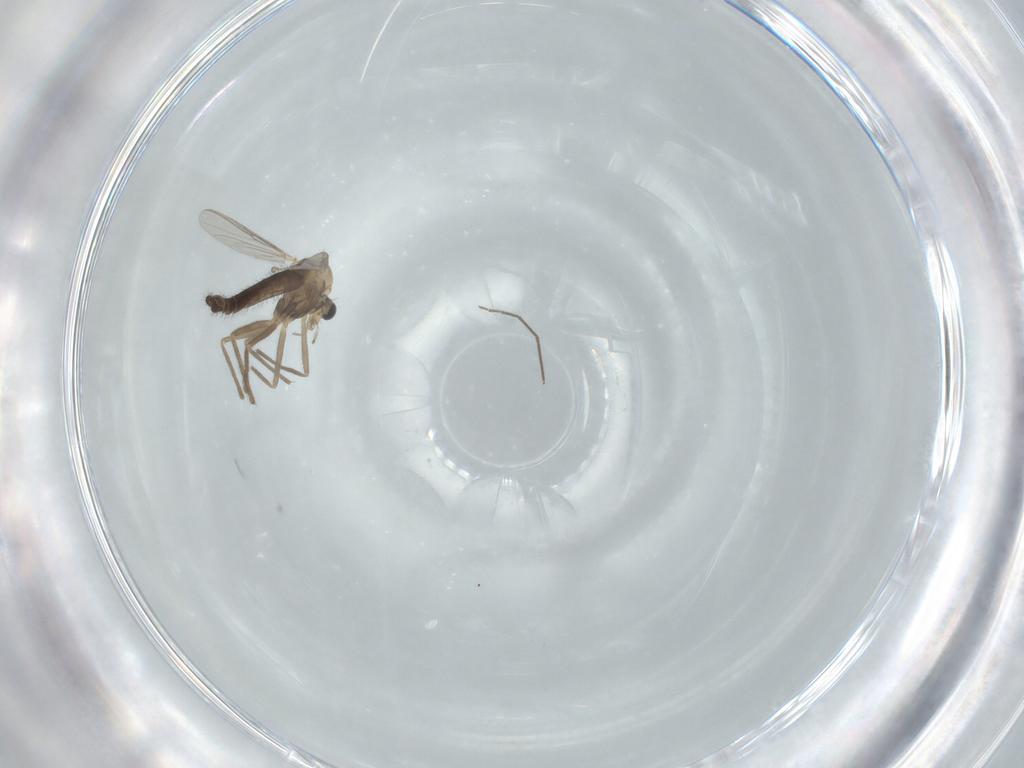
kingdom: Animalia
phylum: Arthropoda
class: Insecta
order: Diptera
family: Chironomidae
